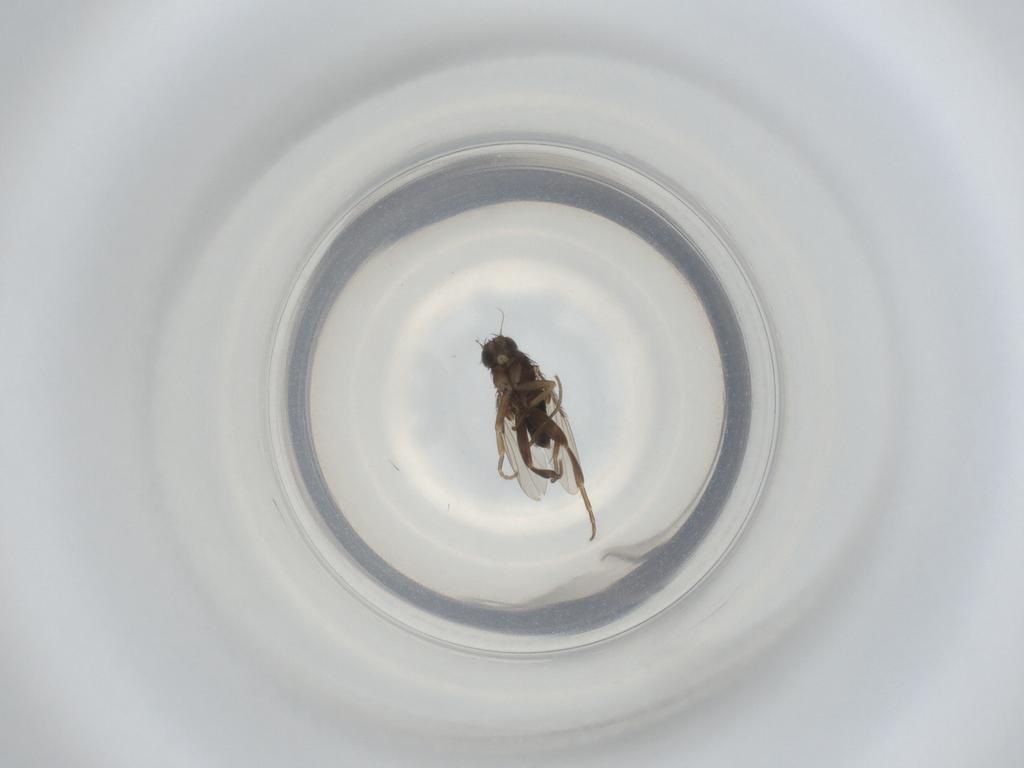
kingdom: Animalia
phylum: Arthropoda
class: Insecta
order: Diptera
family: Phoridae
